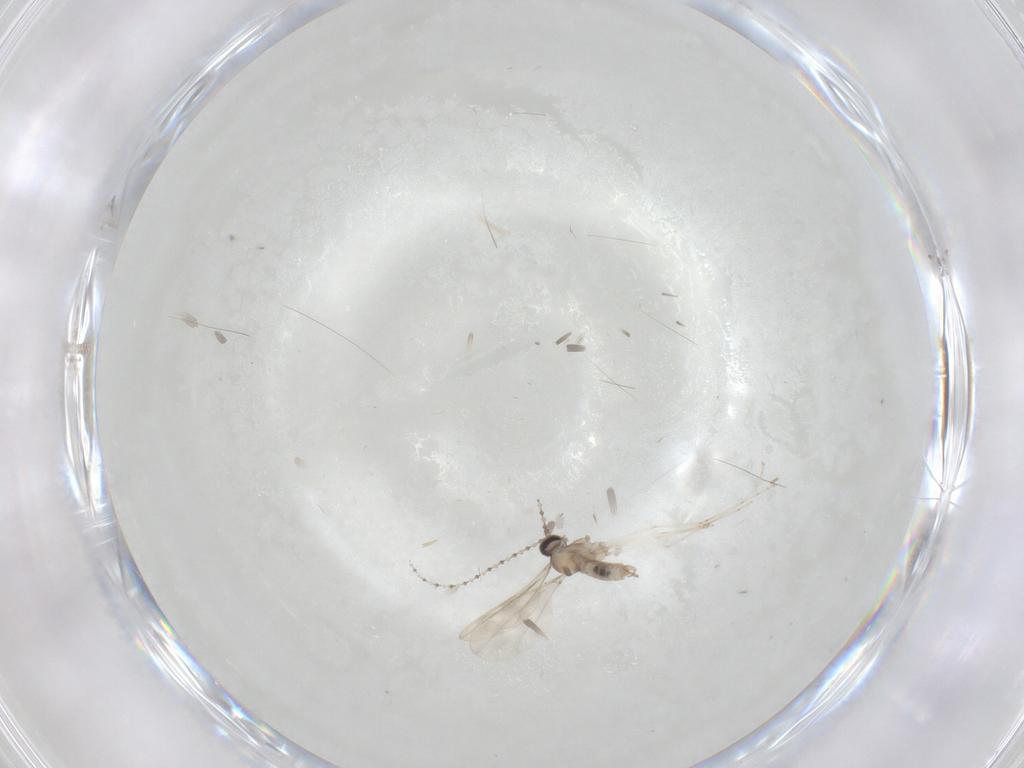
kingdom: Animalia
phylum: Arthropoda
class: Insecta
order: Diptera
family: Cecidomyiidae
